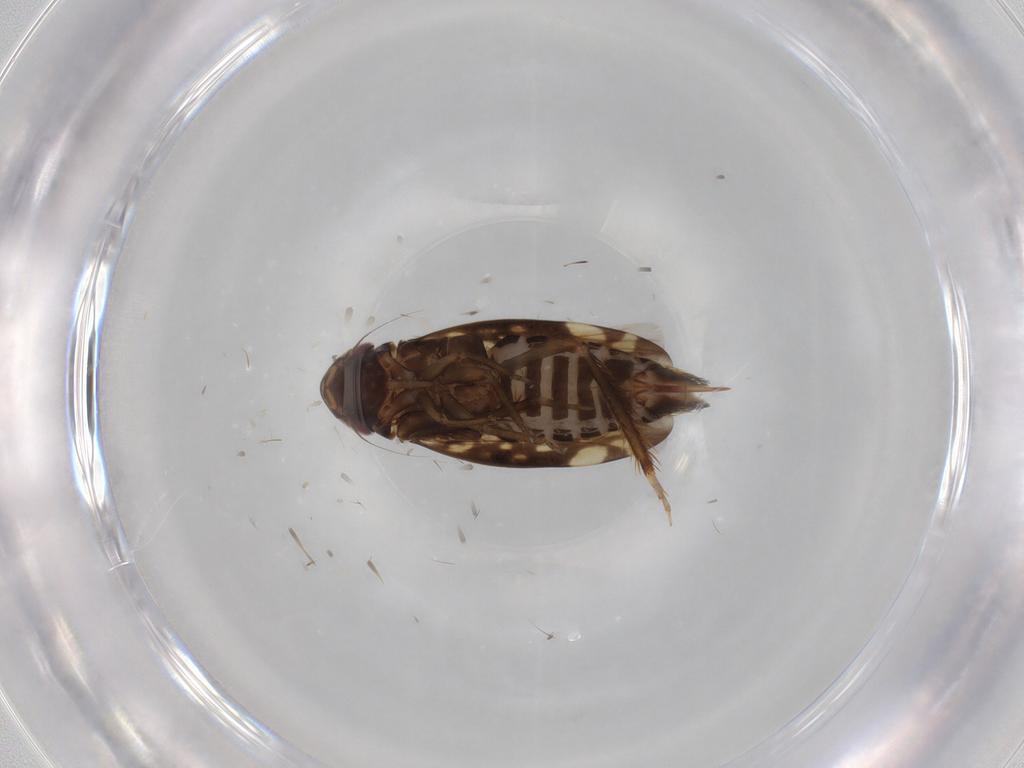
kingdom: Animalia
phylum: Arthropoda
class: Insecta
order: Hemiptera
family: Cicadellidae
